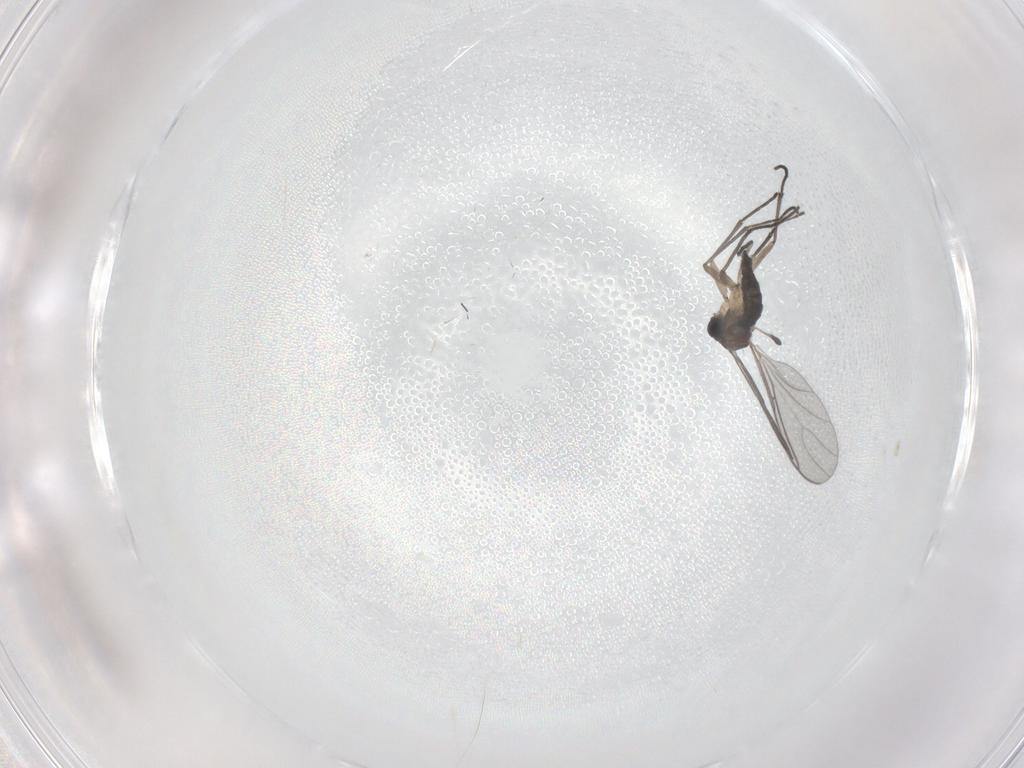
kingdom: Animalia
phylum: Arthropoda
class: Insecta
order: Diptera
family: Sciaridae
